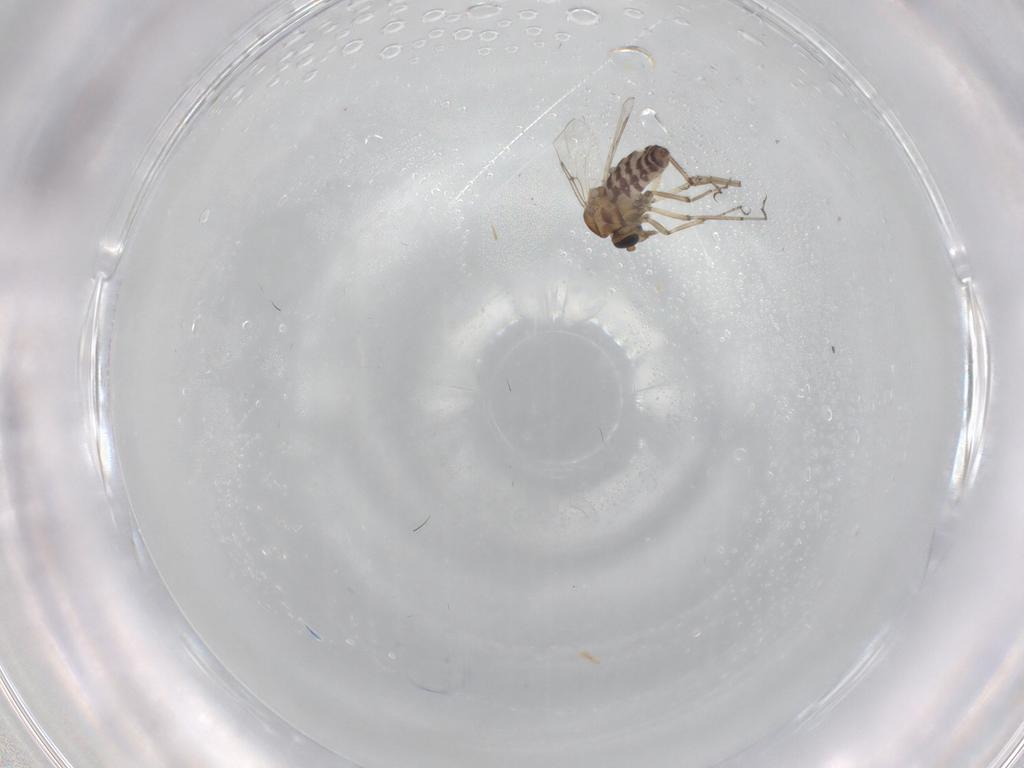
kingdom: Animalia
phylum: Arthropoda
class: Insecta
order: Diptera
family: Ceratopogonidae
